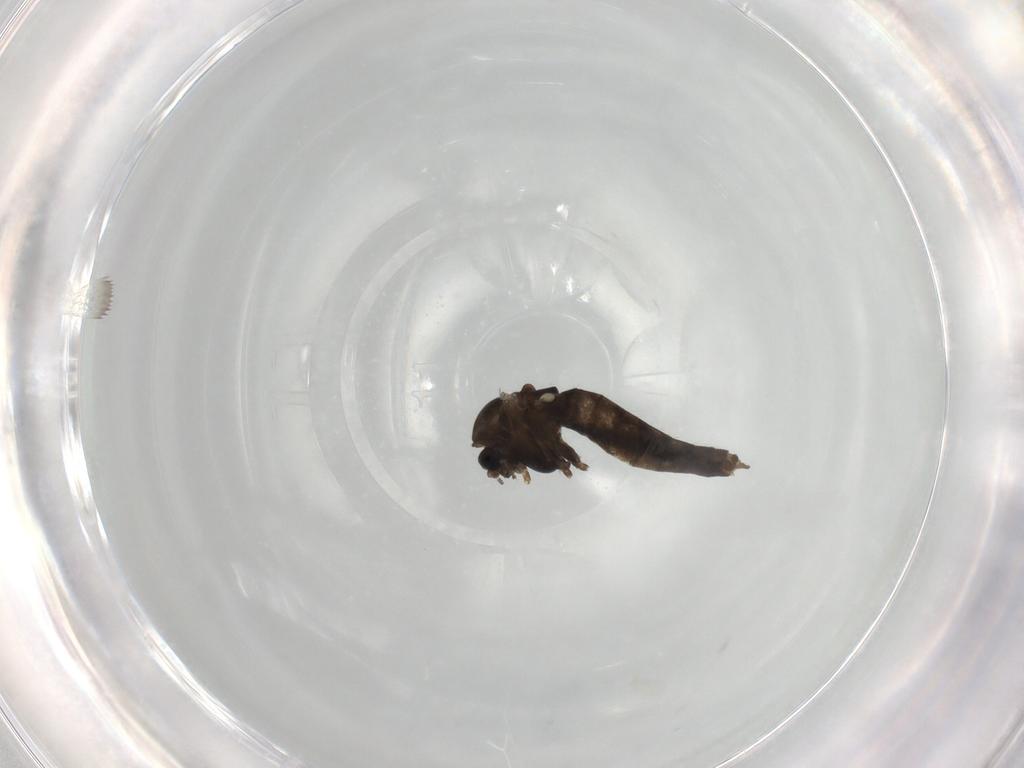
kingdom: Animalia
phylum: Arthropoda
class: Insecta
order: Diptera
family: Chironomidae
